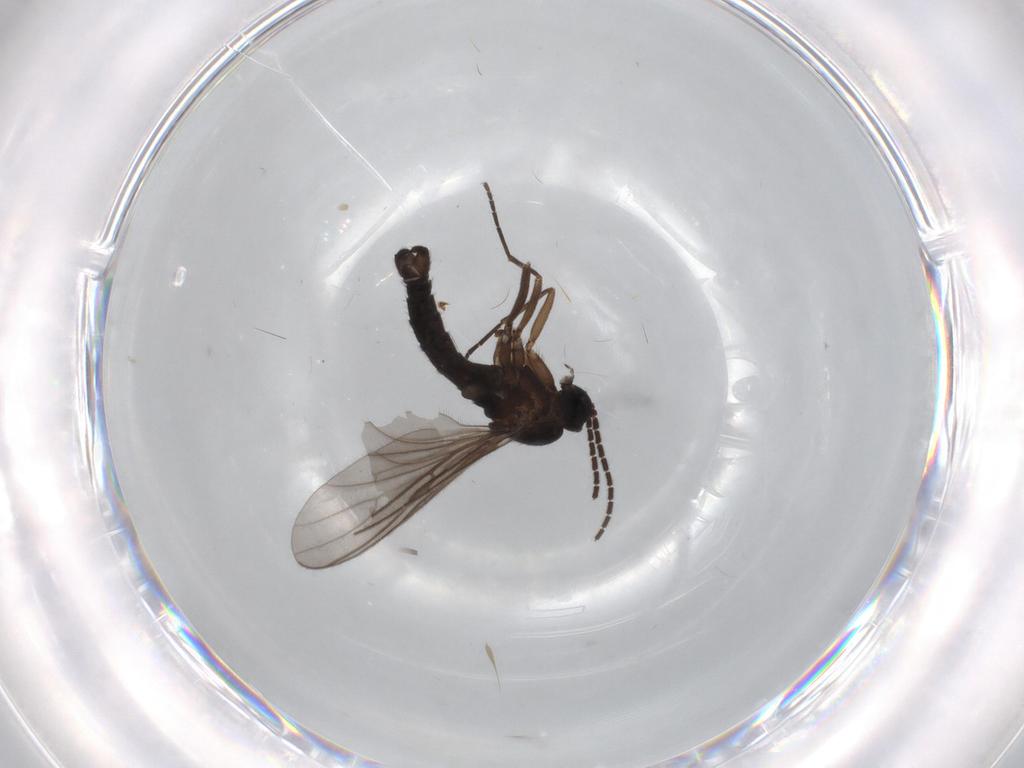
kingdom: Animalia
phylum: Arthropoda
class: Insecta
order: Diptera
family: Sciaridae
